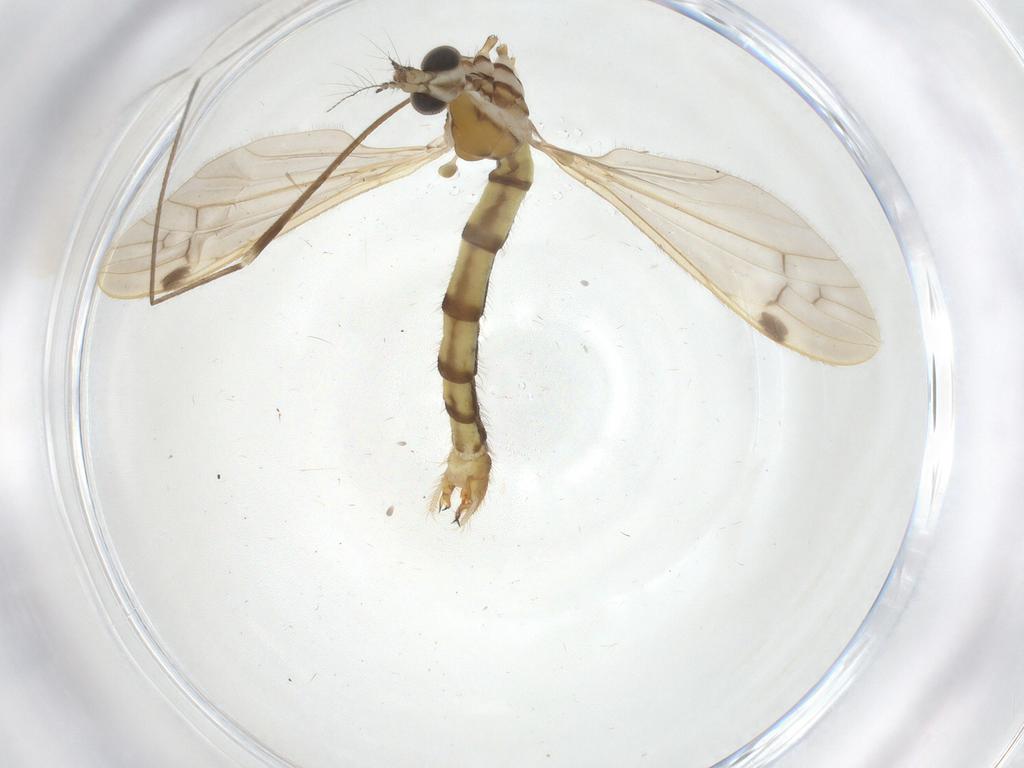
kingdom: Animalia
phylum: Arthropoda
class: Insecta
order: Diptera
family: Ceratopogonidae
